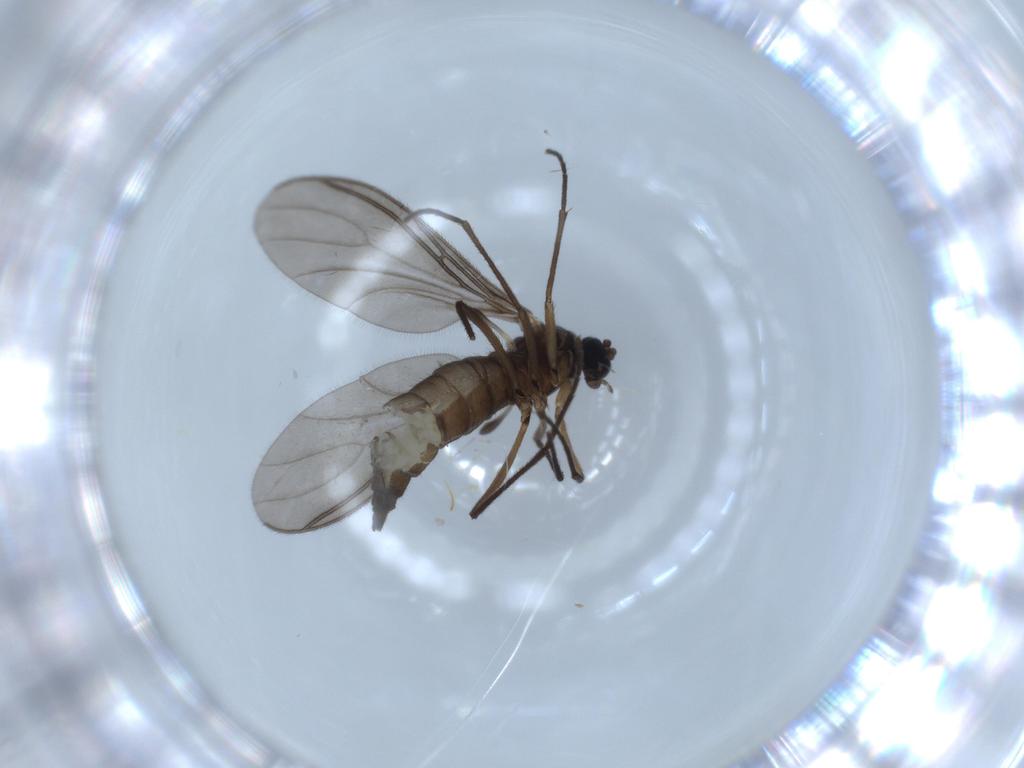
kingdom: Animalia
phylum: Arthropoda
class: Insecta
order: Diptera
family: Sciaridae
